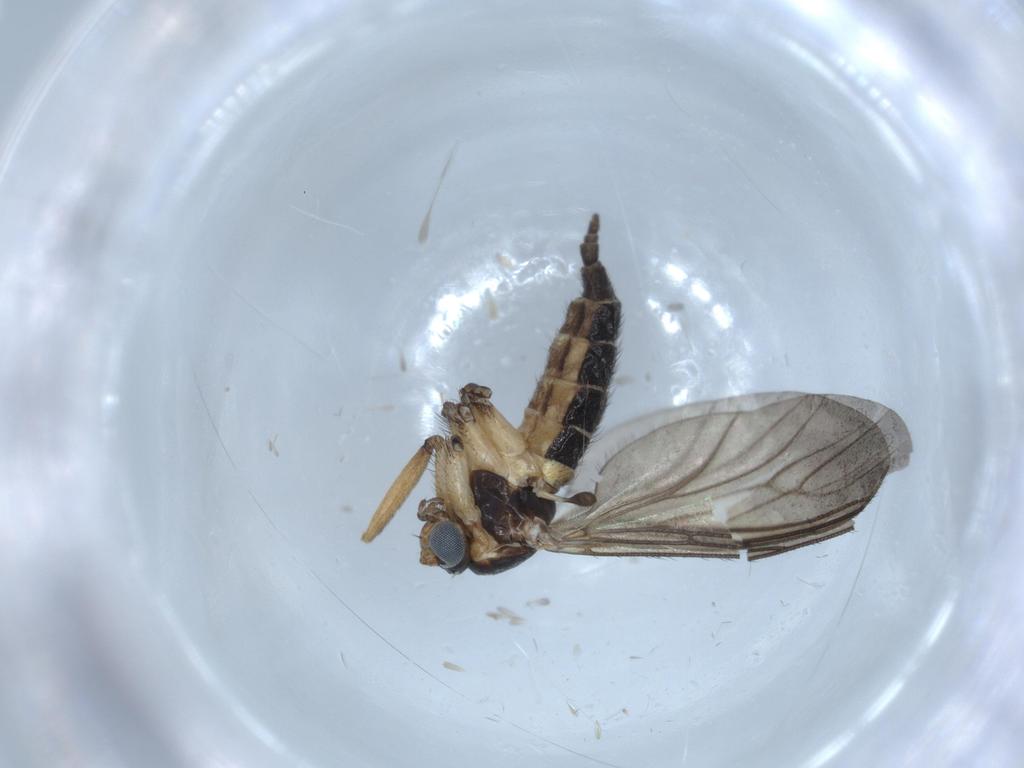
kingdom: Animalia
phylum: Arthropoda
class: Insecta
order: Diptera
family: Sciaridae
